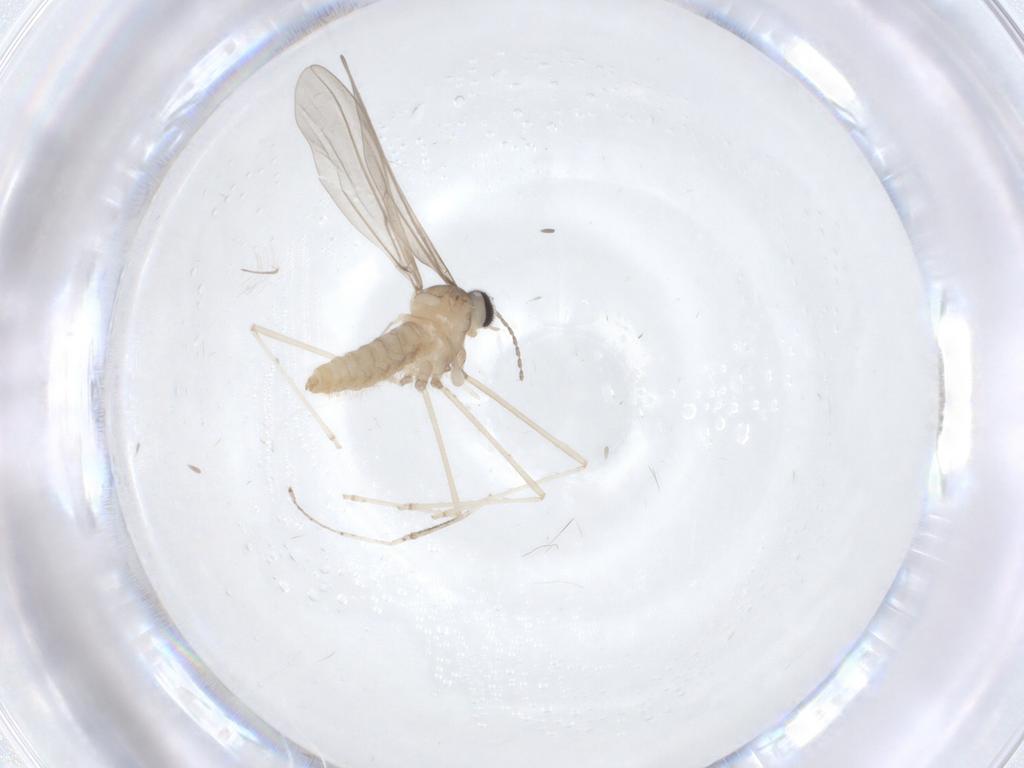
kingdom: Animalia
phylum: Arthropoda
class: Insecta
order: Diptera
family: Cecidomyiidae
